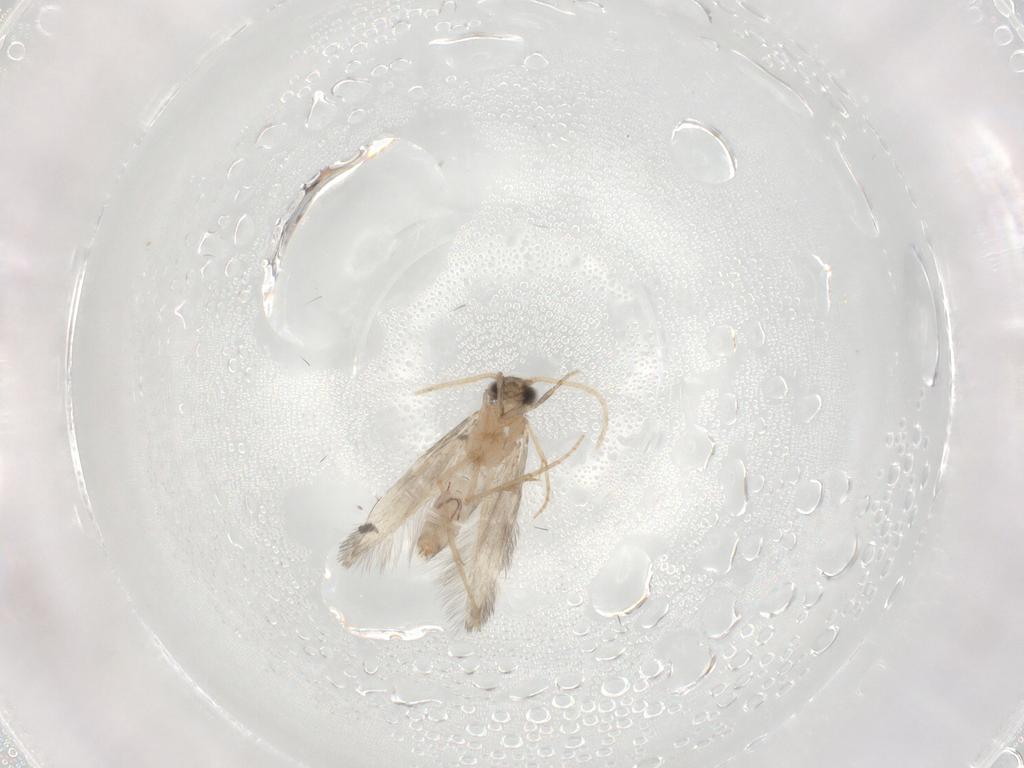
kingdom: Animalia
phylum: Arthropoda
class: Insecta
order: Trichoptera
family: Hydroptilidae
